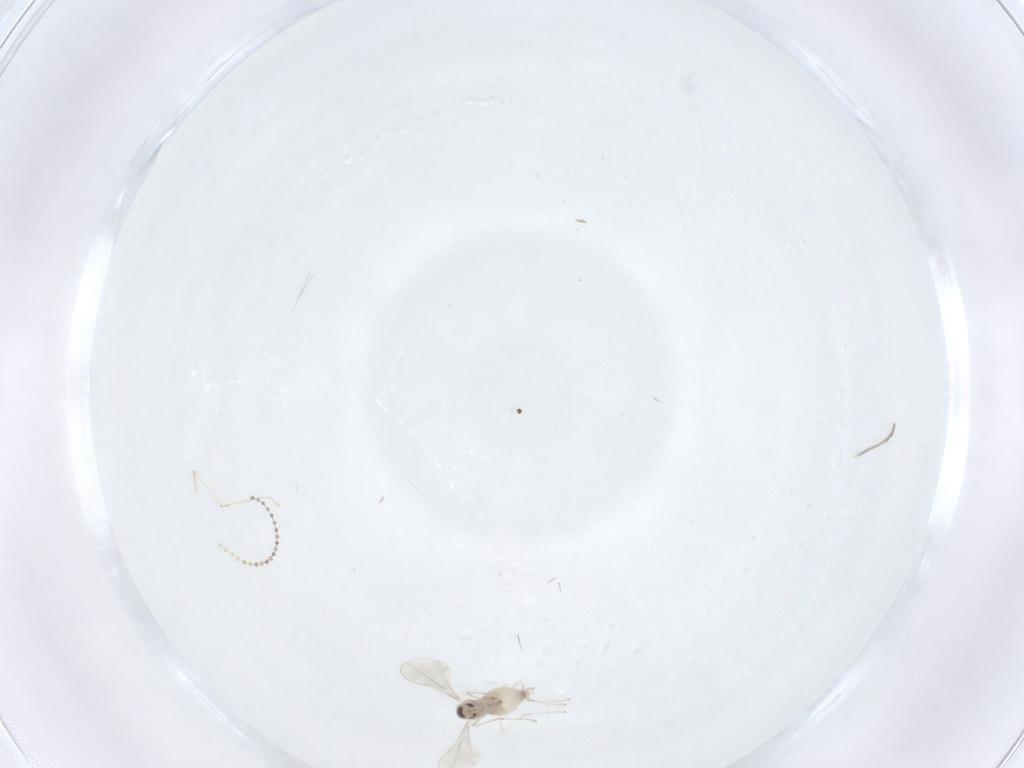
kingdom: Animalia
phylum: Arthropoda
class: Insecta
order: Diptera
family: Cecidomyiidae
